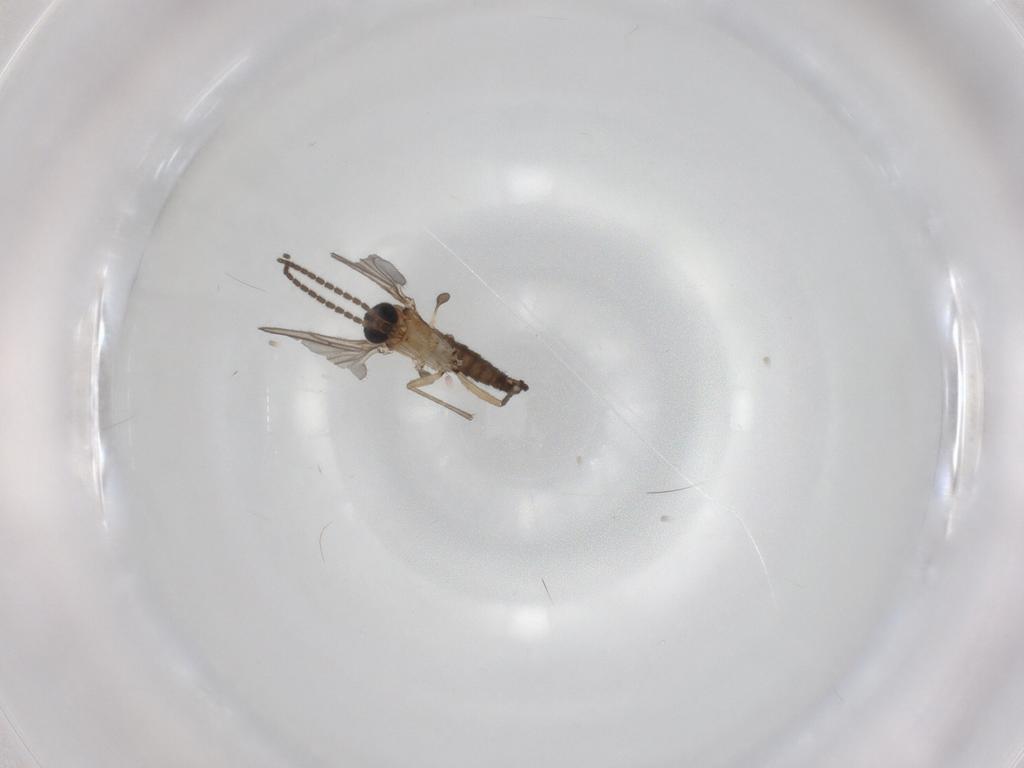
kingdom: Animalia
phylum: Arthropoda
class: Insecta
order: Diptera
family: Sciaridae
